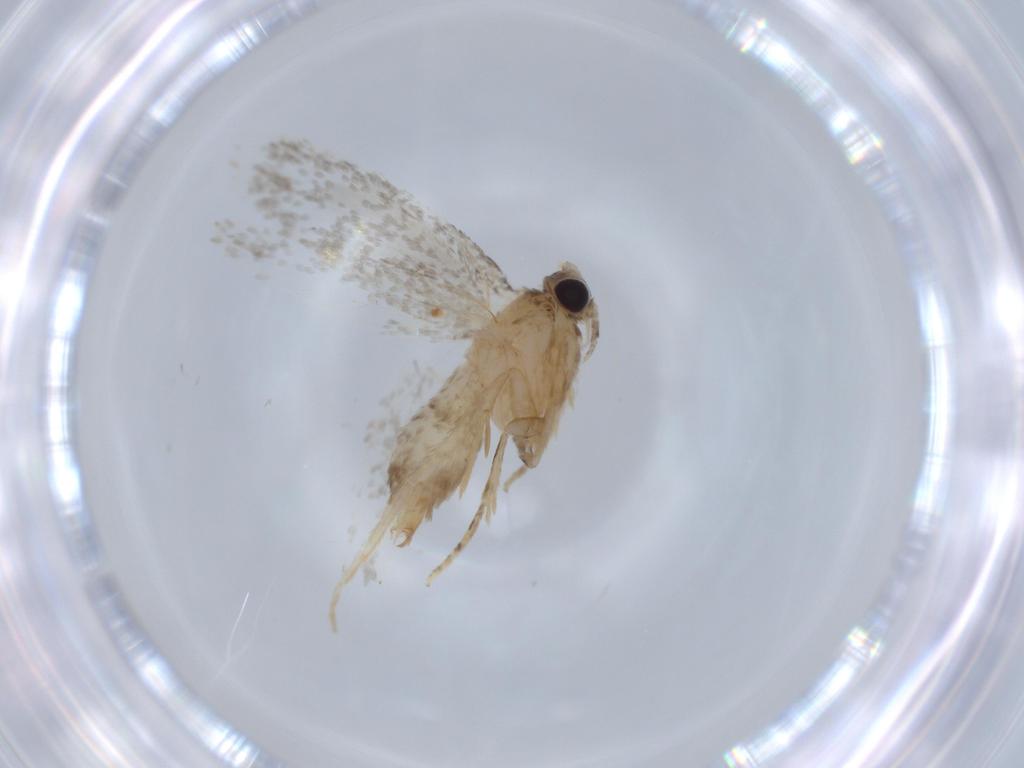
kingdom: Animalia
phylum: Arthropoda
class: Insecta
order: Lepidoptera
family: Tineidae
